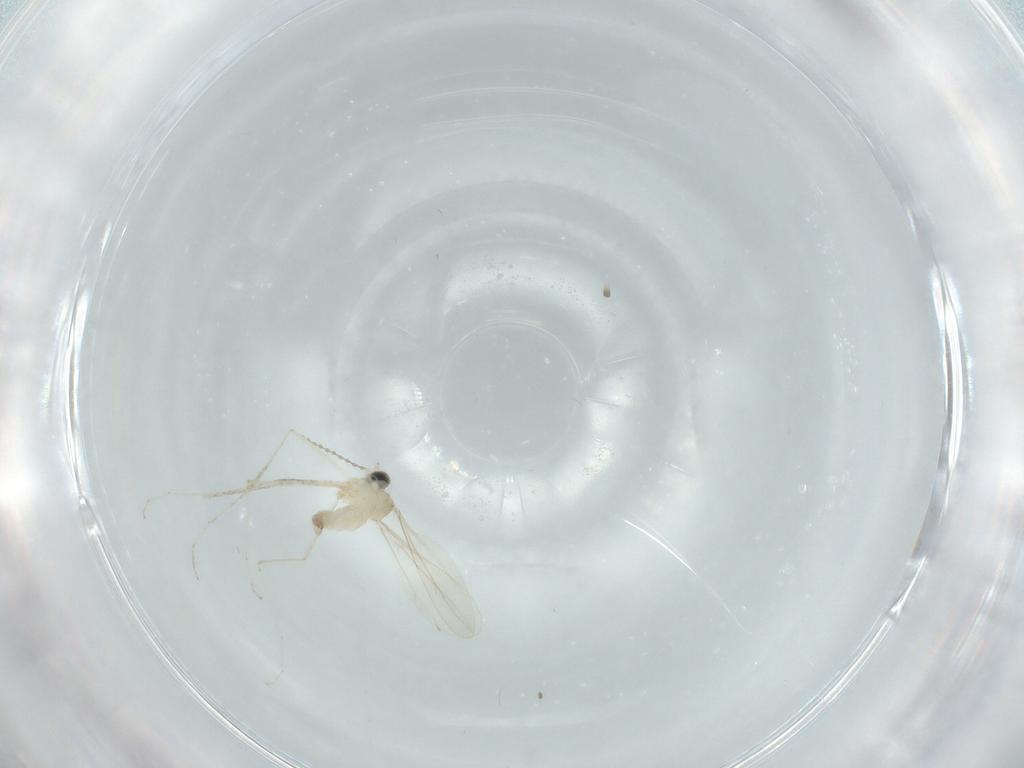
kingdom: Animalia
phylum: Arthropoda
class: Insecta
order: Diptera
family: Cecidomyiidae
